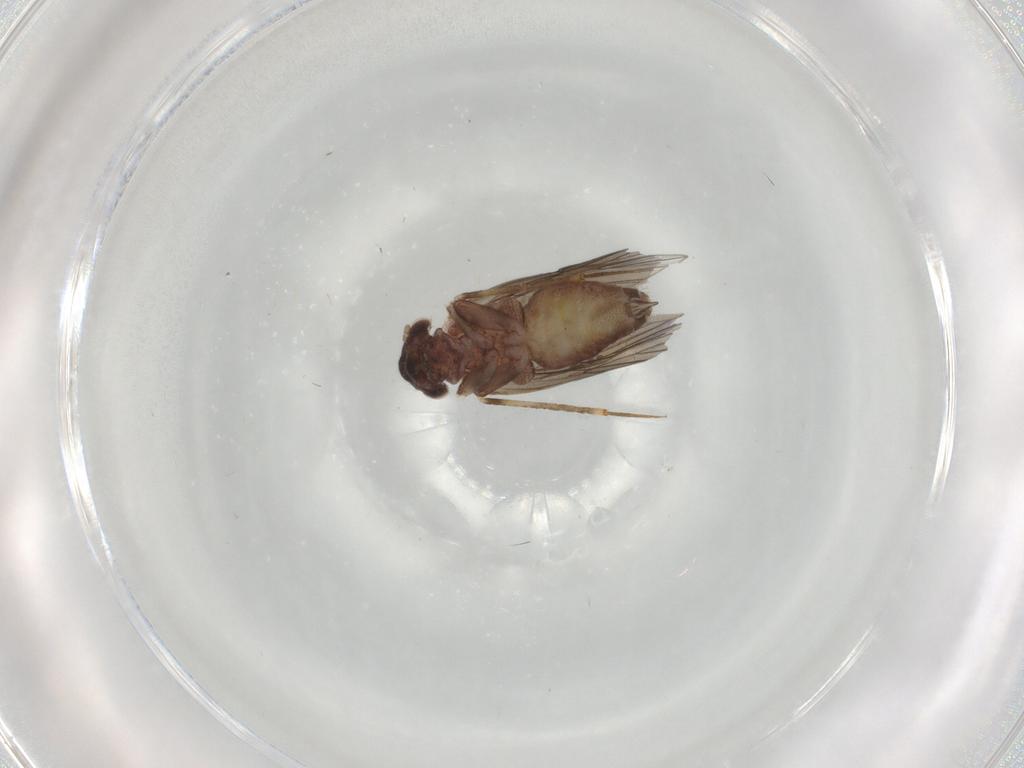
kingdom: Animalia
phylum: Arthropoda
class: Insecta
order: Psocodea
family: Lepidopsocidae
